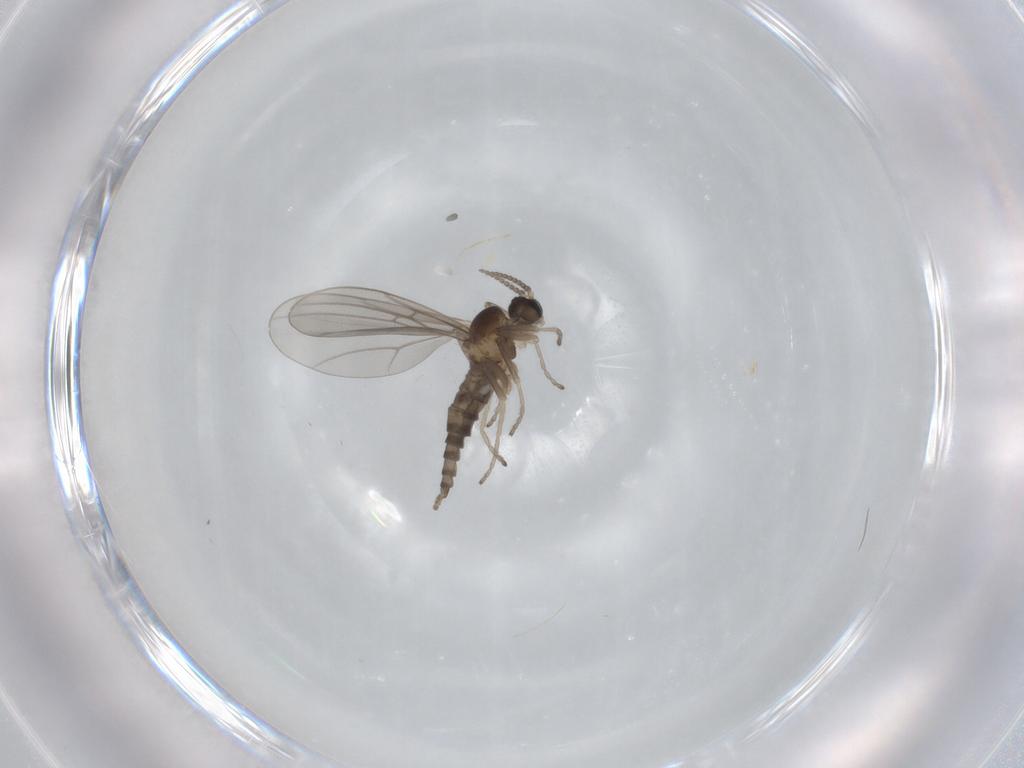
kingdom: Animalia
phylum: Arthropoda
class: Insecta
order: Diptera
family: Cecidomyiidae
